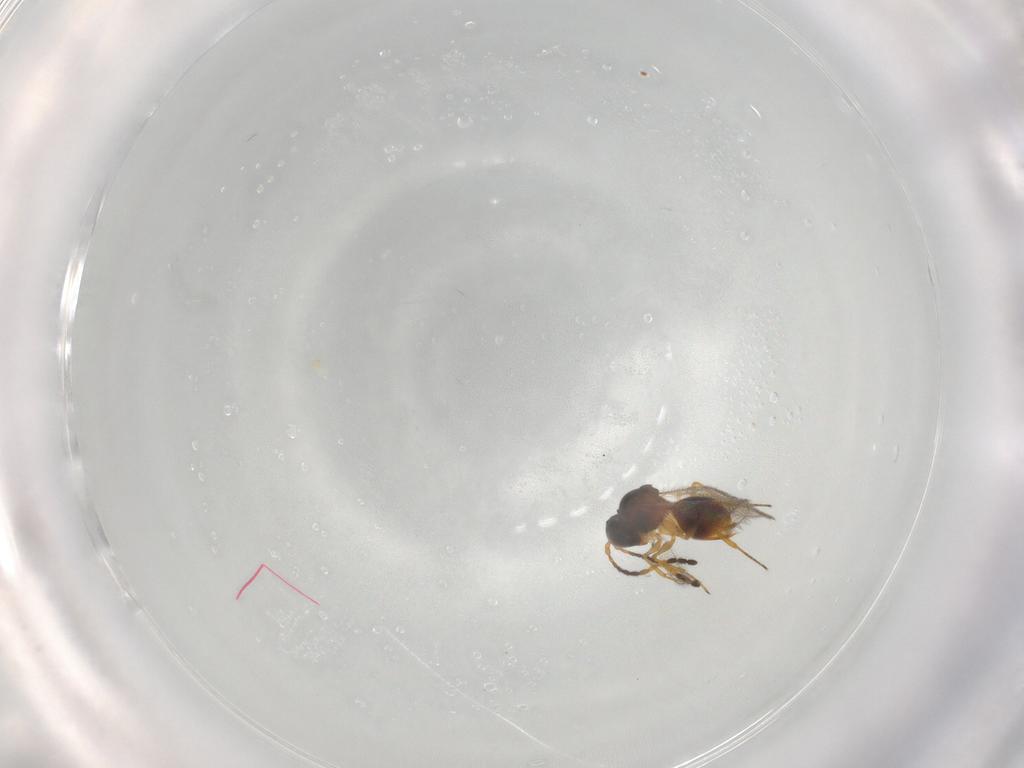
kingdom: Animalia
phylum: Arthropoda
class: Insecta
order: Hymenoptera
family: Figitidae
